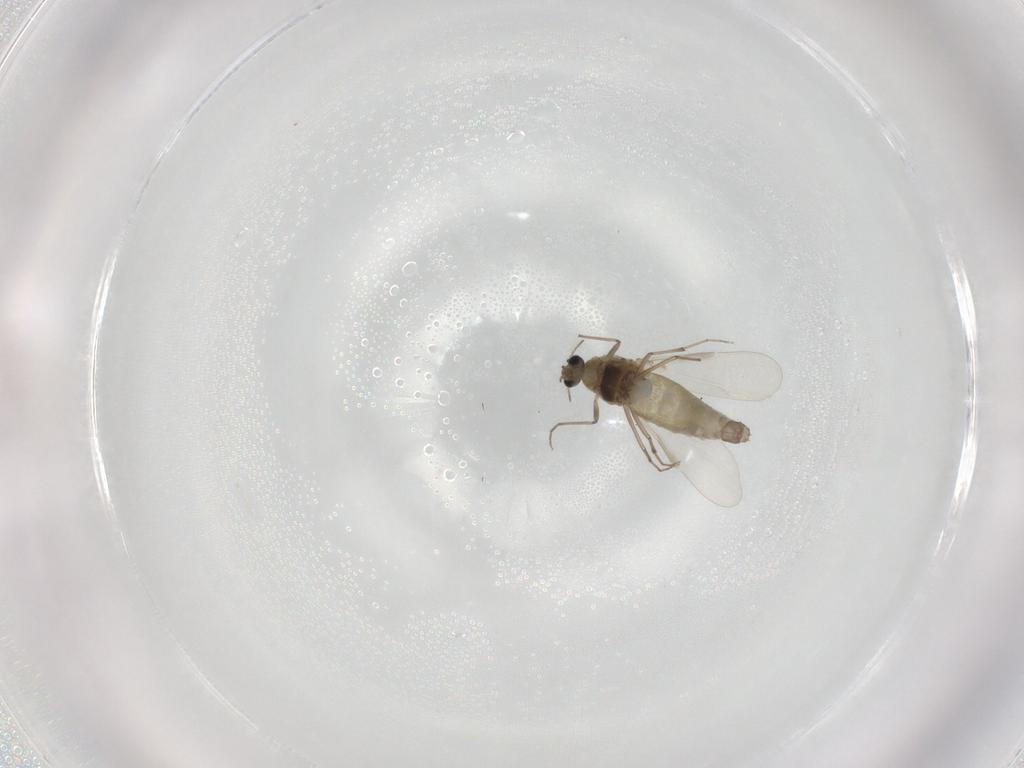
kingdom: Animalia
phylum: Arthropoda
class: Insecta
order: Diptera
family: Chironomidae
